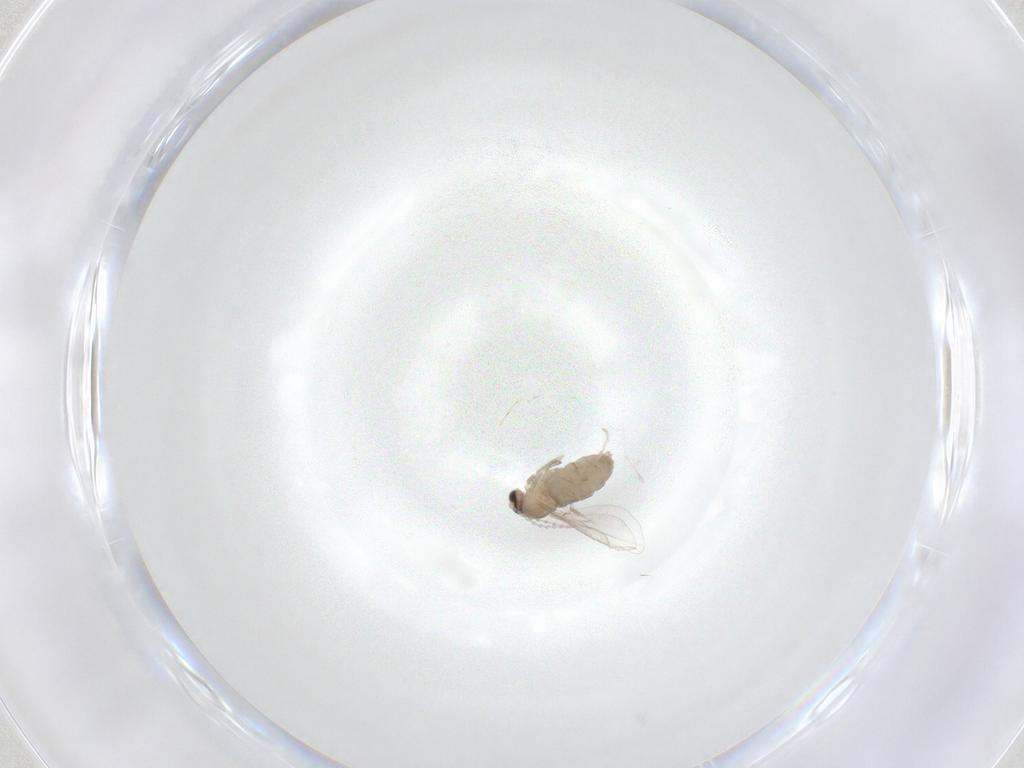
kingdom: Animalia
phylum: Arthropoda
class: Insecta
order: Diptera
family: Cecidomyiidae
